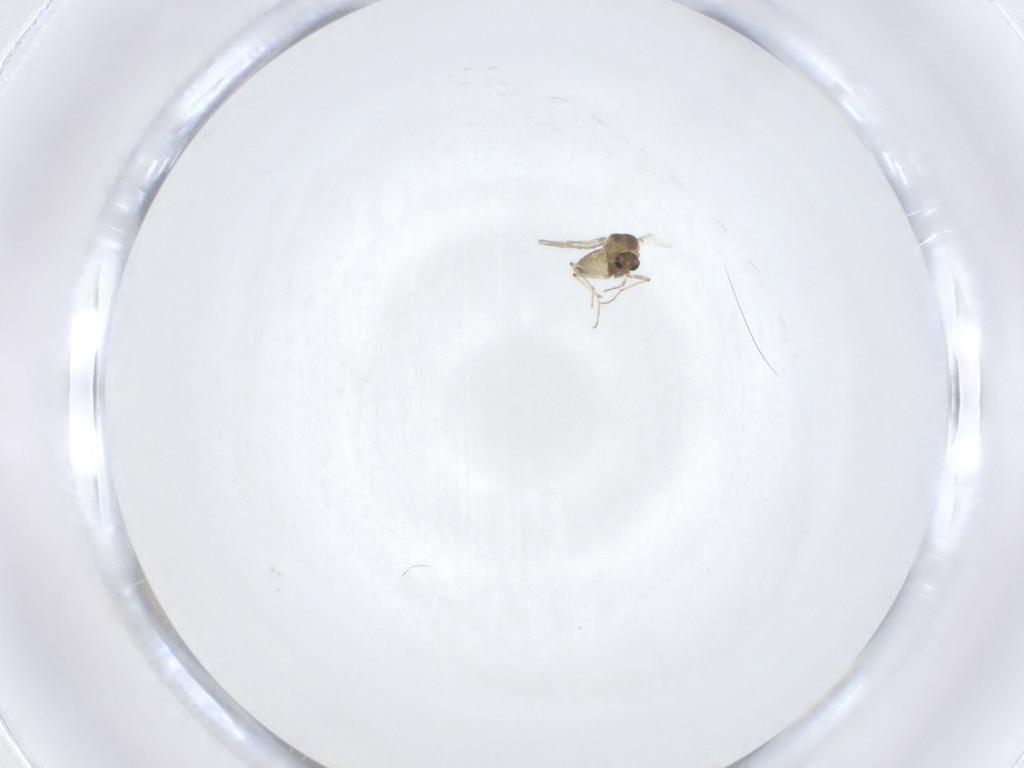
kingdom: Animalia
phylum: Arthropoda
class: Insecta
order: Diptera
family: Chironomidae
